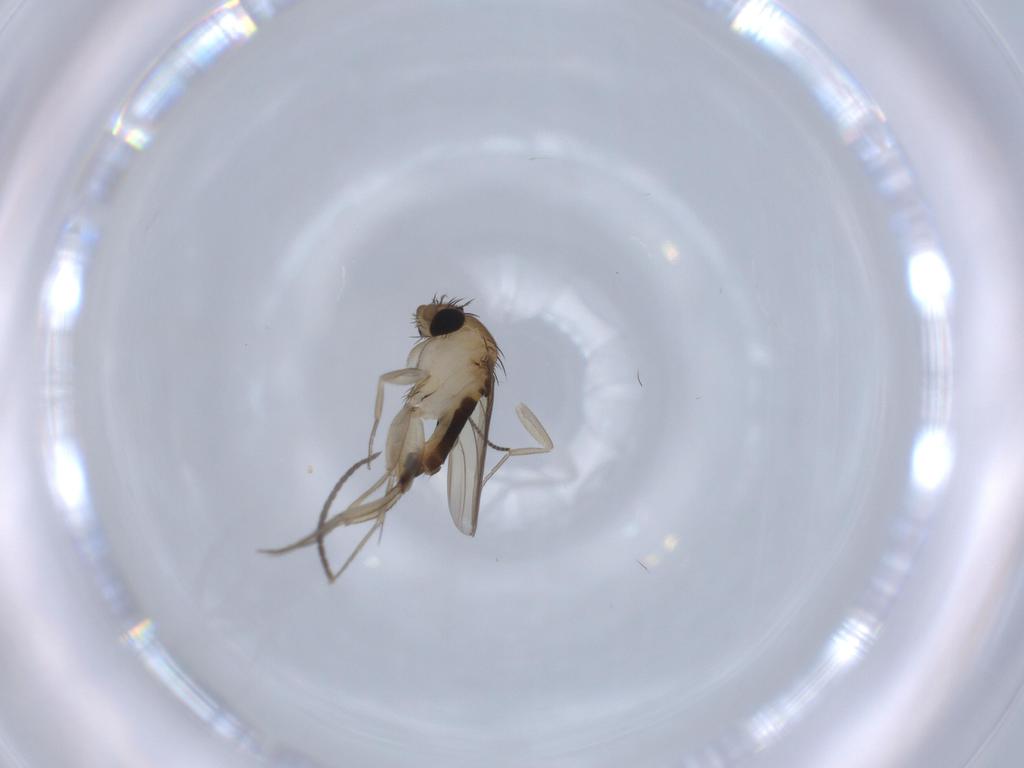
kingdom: Animalia
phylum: Arthropoda
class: Insecta
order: Diptera
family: Phoridae
